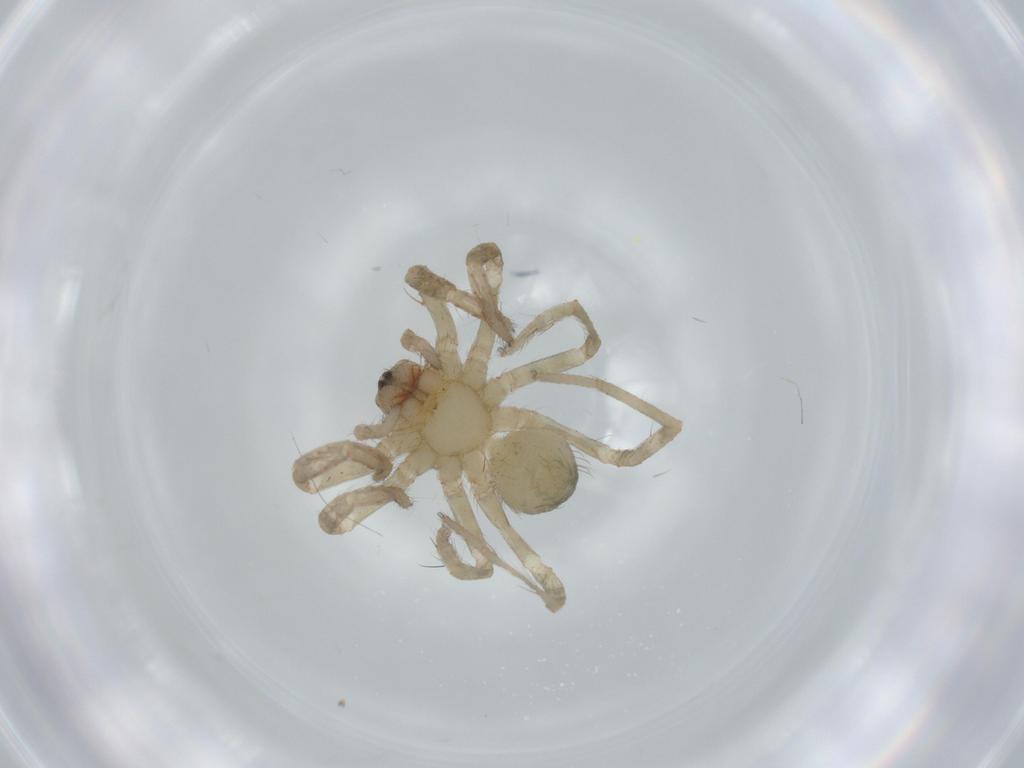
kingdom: Animalia
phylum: Arthropoda
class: Arachnida
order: Araneae
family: Ctenidae
